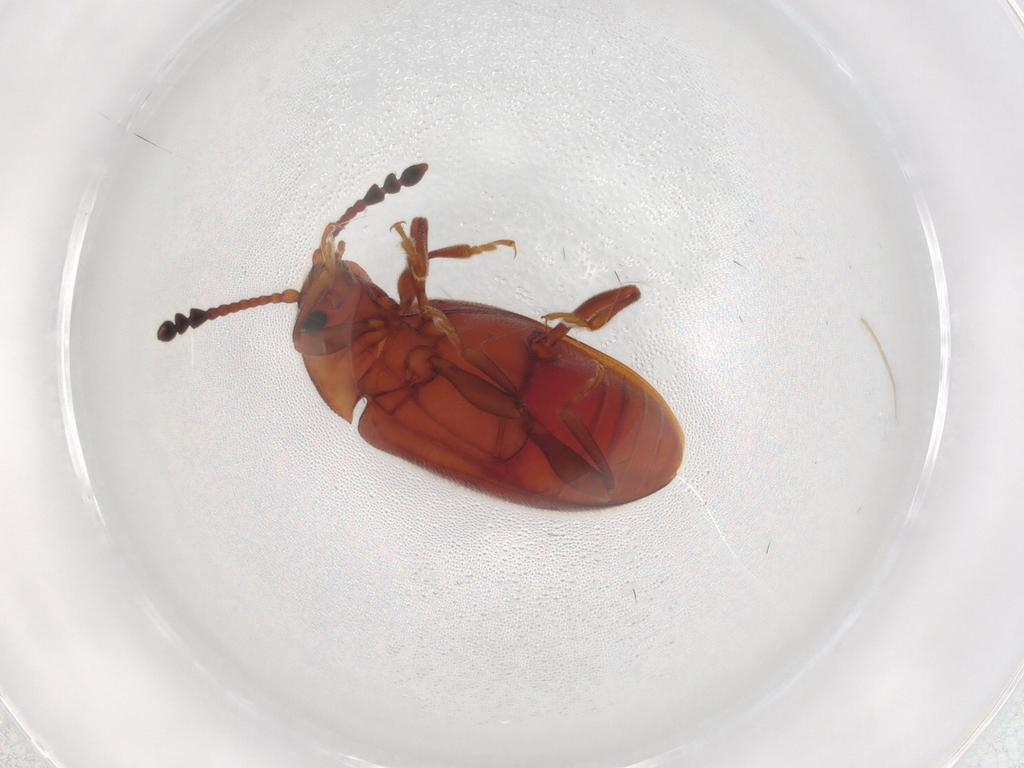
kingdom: Animalia
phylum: Arthropoda
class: Insecta
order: Coleoptera
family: Endomychidae
